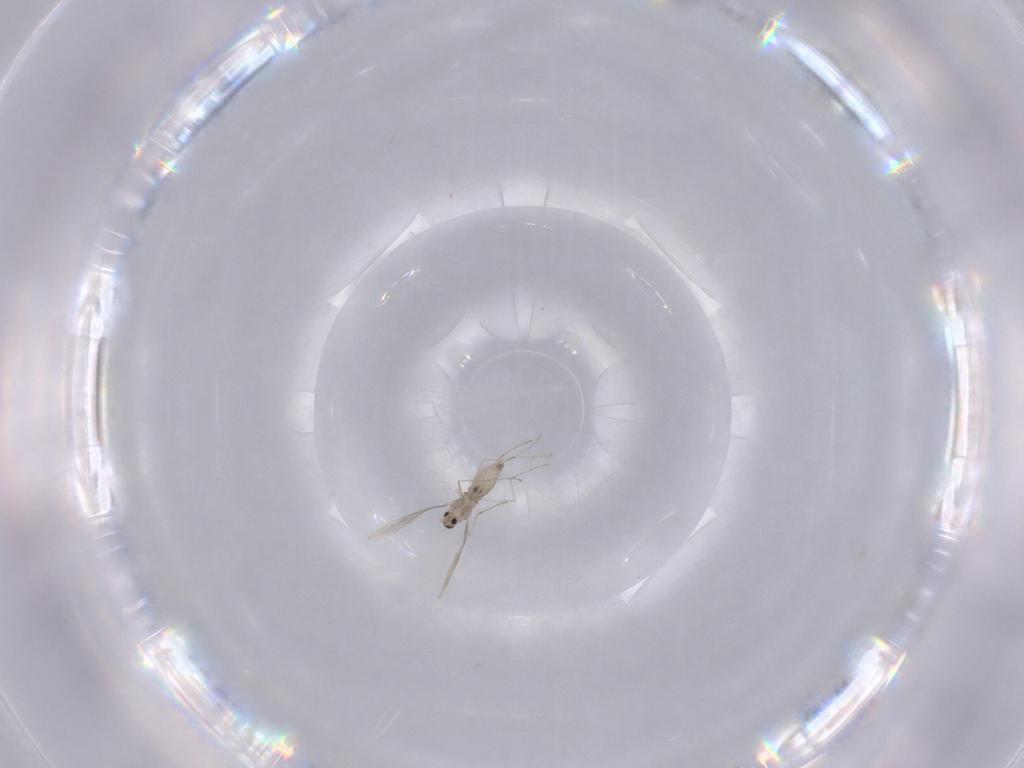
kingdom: Animalia
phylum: Arthropoda
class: Insecta
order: Diptera
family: Cecidomyiidae
